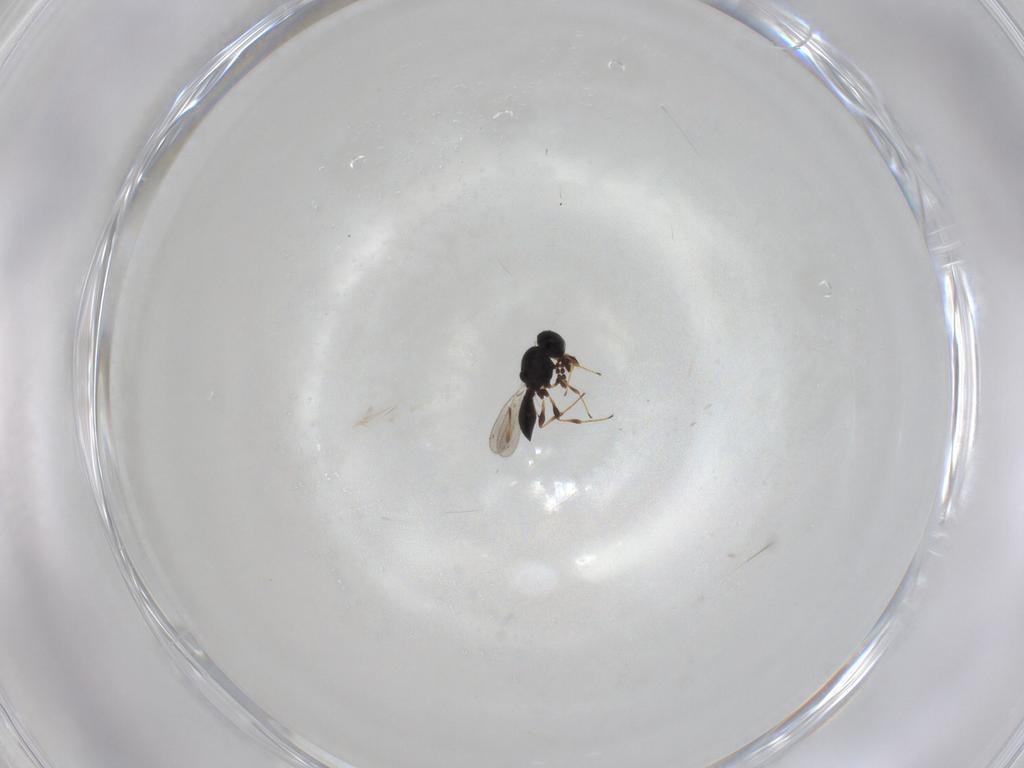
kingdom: Animalia
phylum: Arthropoda
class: Insecta
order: Hymenoptera
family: Platygastridae
